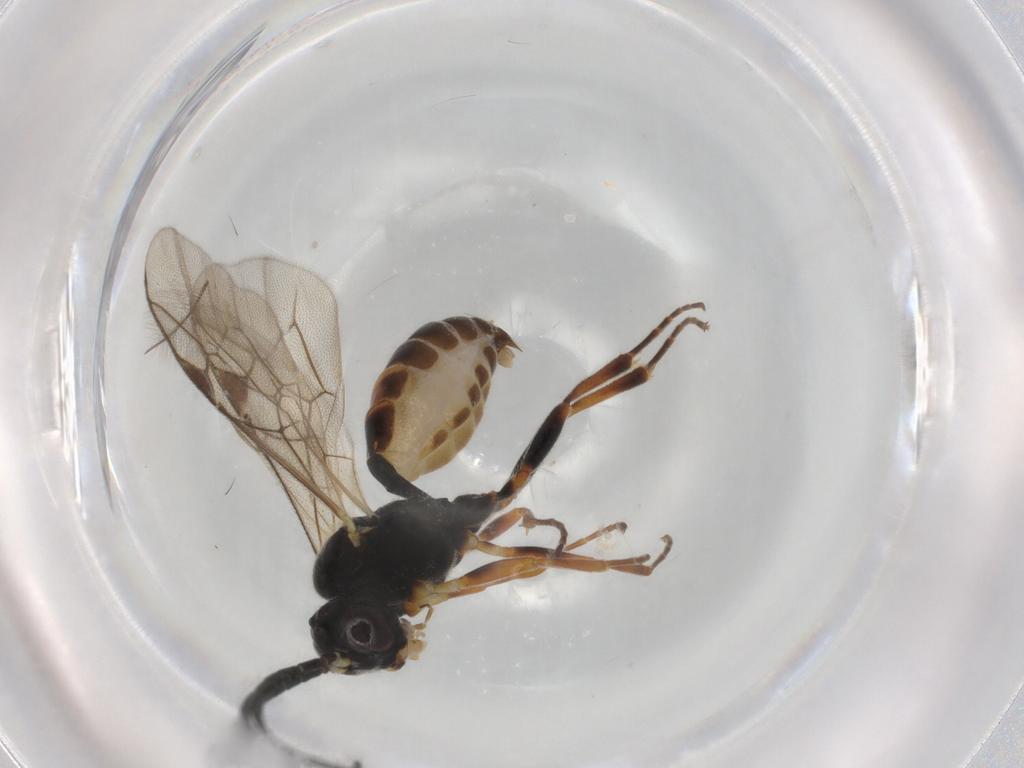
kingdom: Animalia
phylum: Arthropoda
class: Insecta
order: Hymenoptera
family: Ichneumonidae
